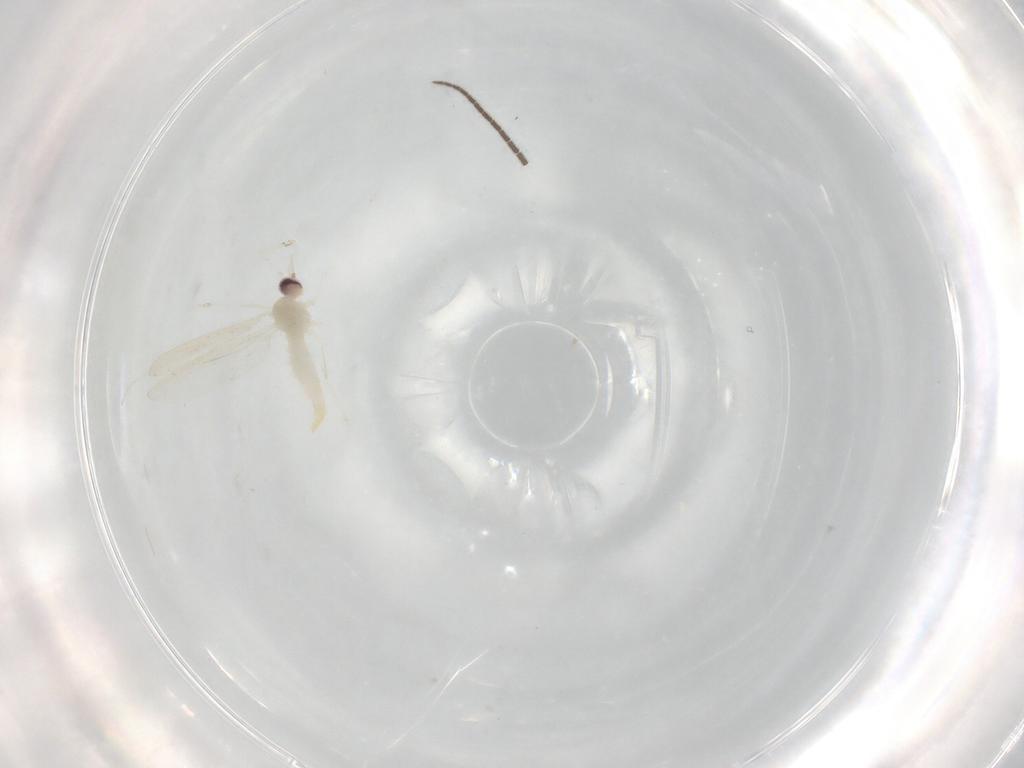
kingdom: Animalia
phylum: Arthropoda
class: Insecta
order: Diptera
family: Cecidomyiidae
